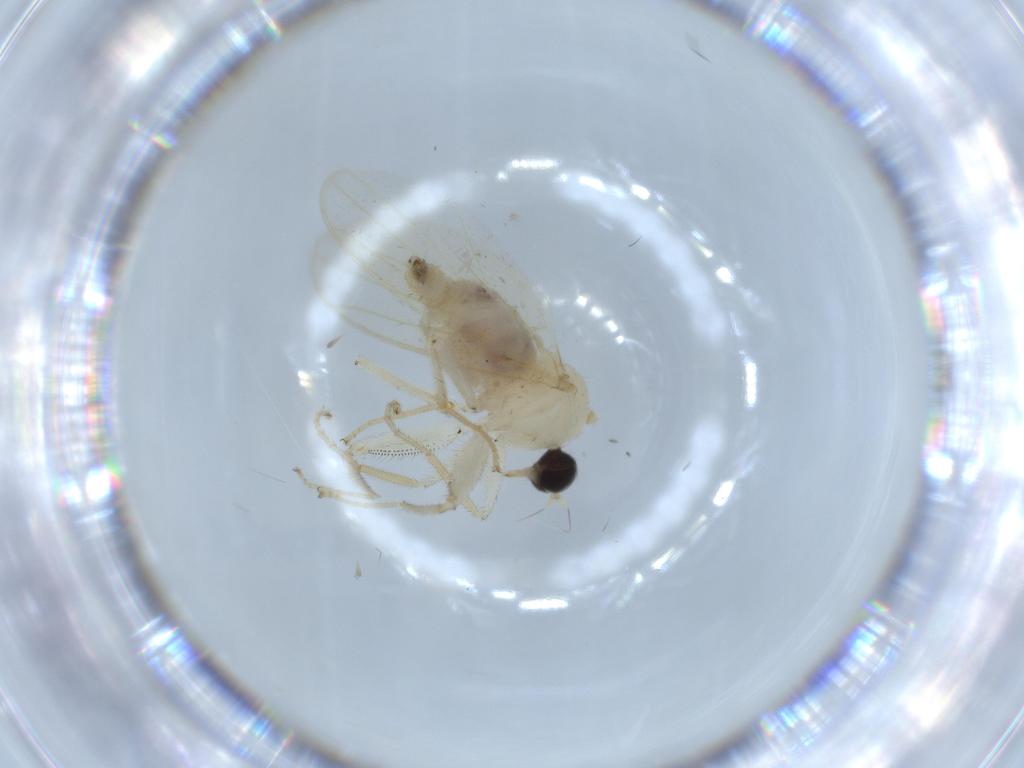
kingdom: Animalia
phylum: Arthropoda
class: Insecta
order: Diptera
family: Hybotidae
